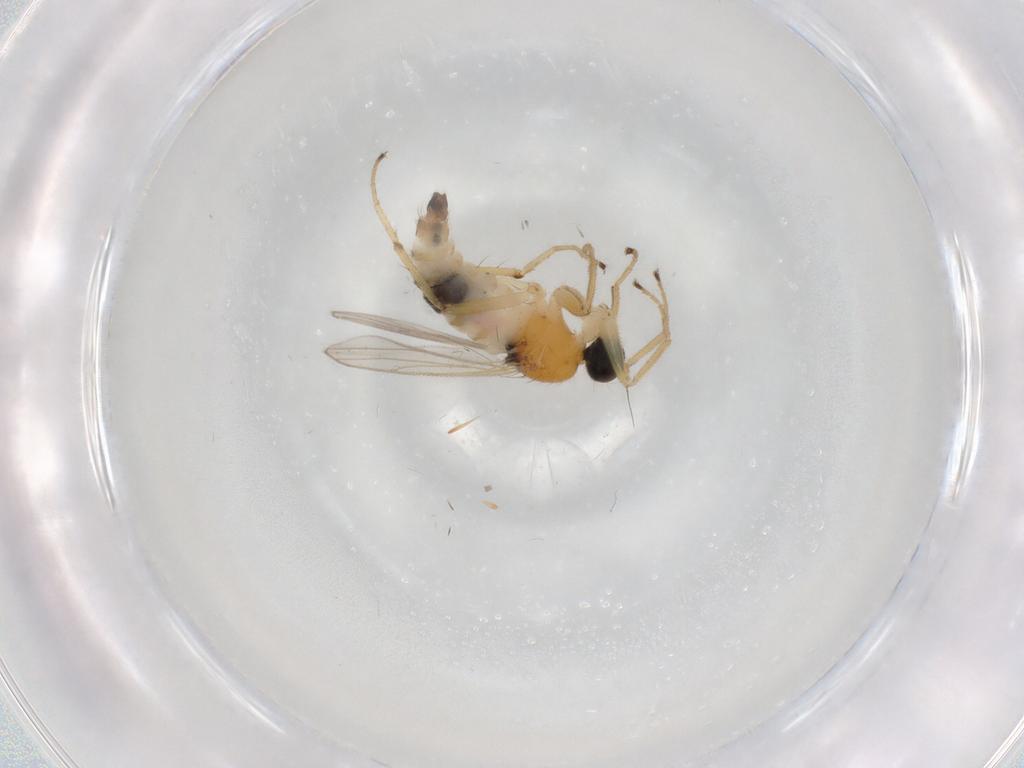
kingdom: Animalia
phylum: Arthropoda
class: Insecta
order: Diptera
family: Hybotidae
